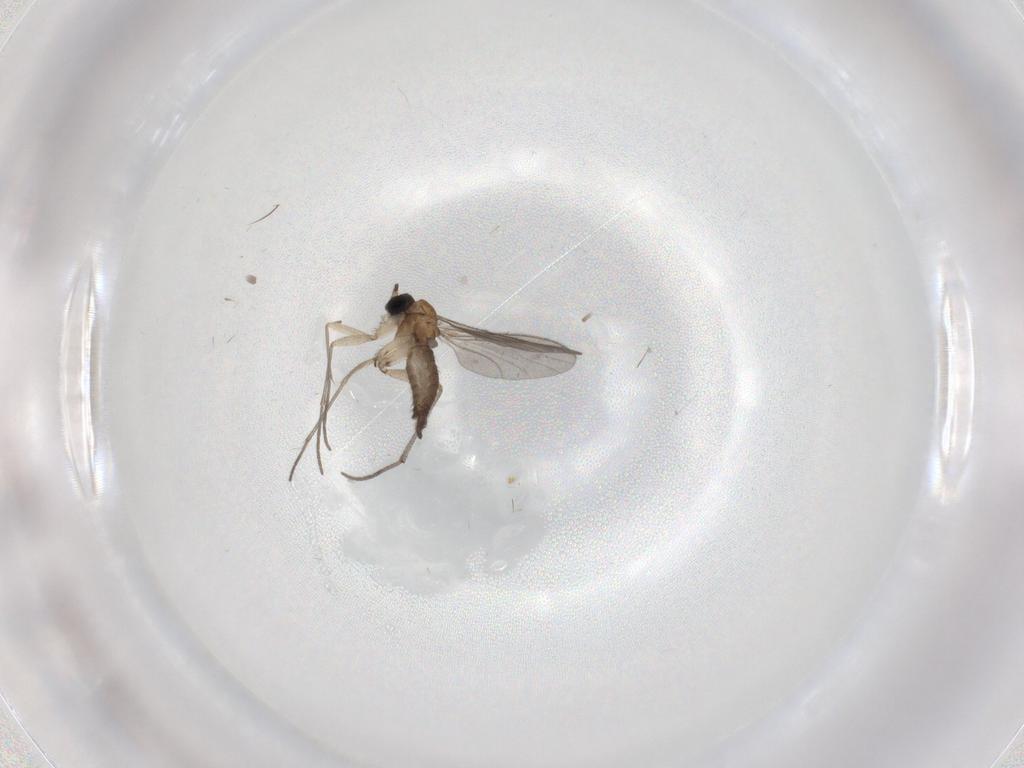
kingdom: Animalia
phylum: Arthropoda
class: Insecta
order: Diptera
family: Sciaridae
